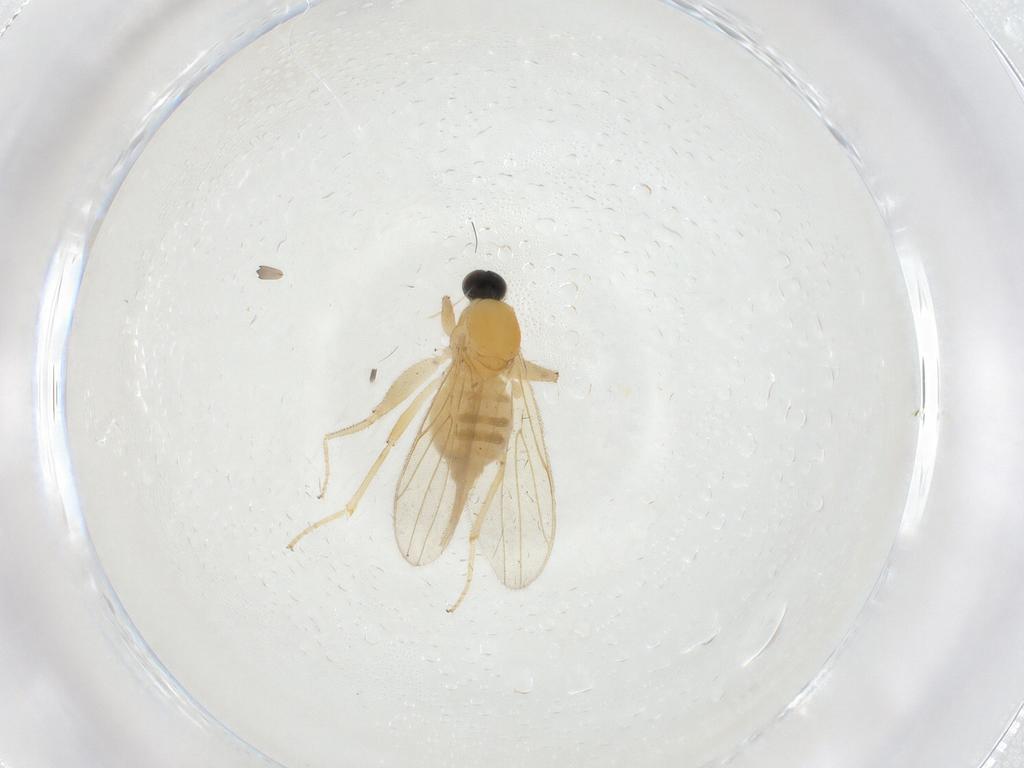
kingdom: Animalia
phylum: Arthropoda
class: Insecta
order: Diptera
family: Hybotidae
